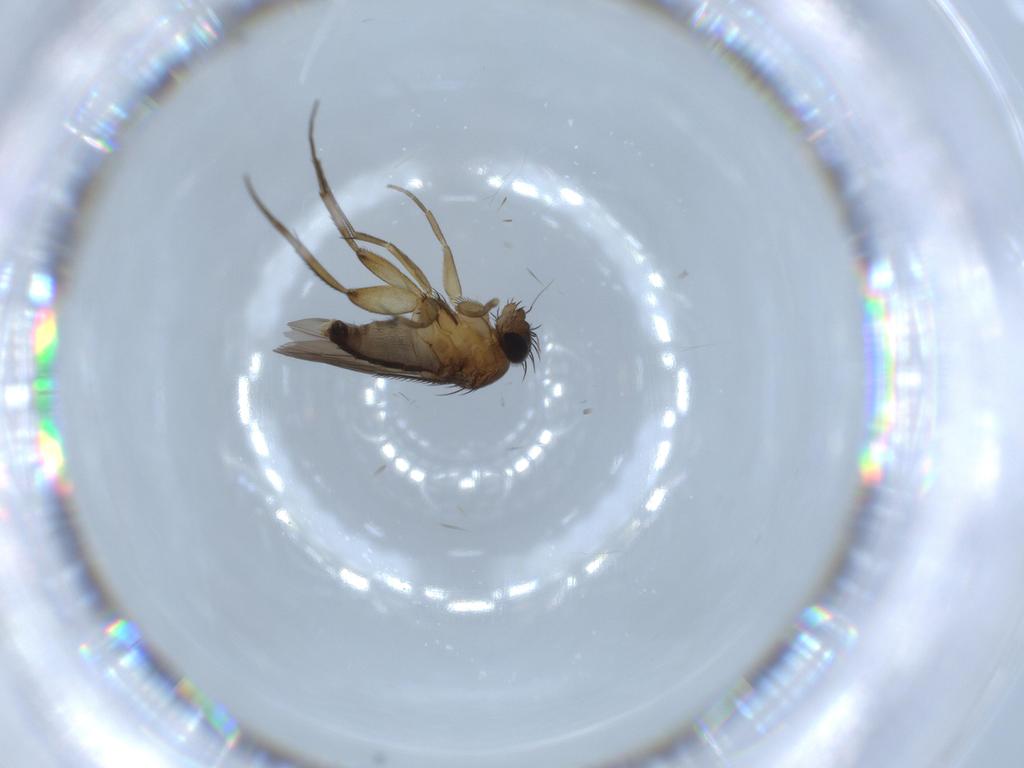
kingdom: Animalia
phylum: Arthropoda
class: Insecta
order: Diptera
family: Phoridae
